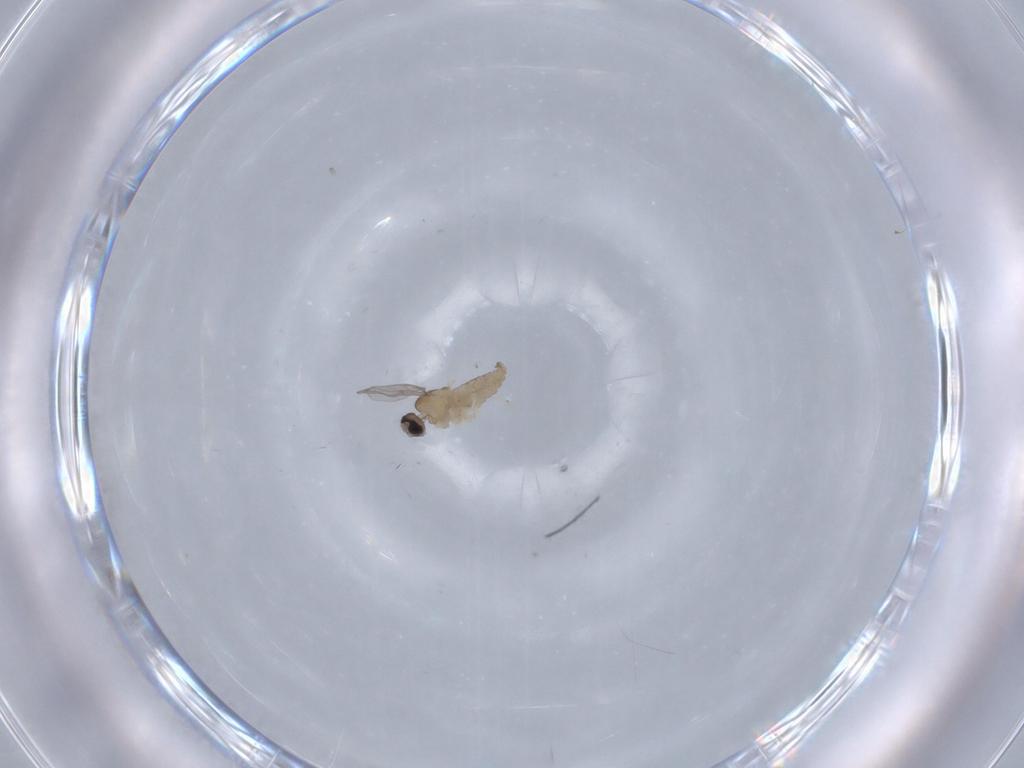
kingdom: Animalia
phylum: Arthropoda
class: Insecta
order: Diptera
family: Cecidomyiidae
